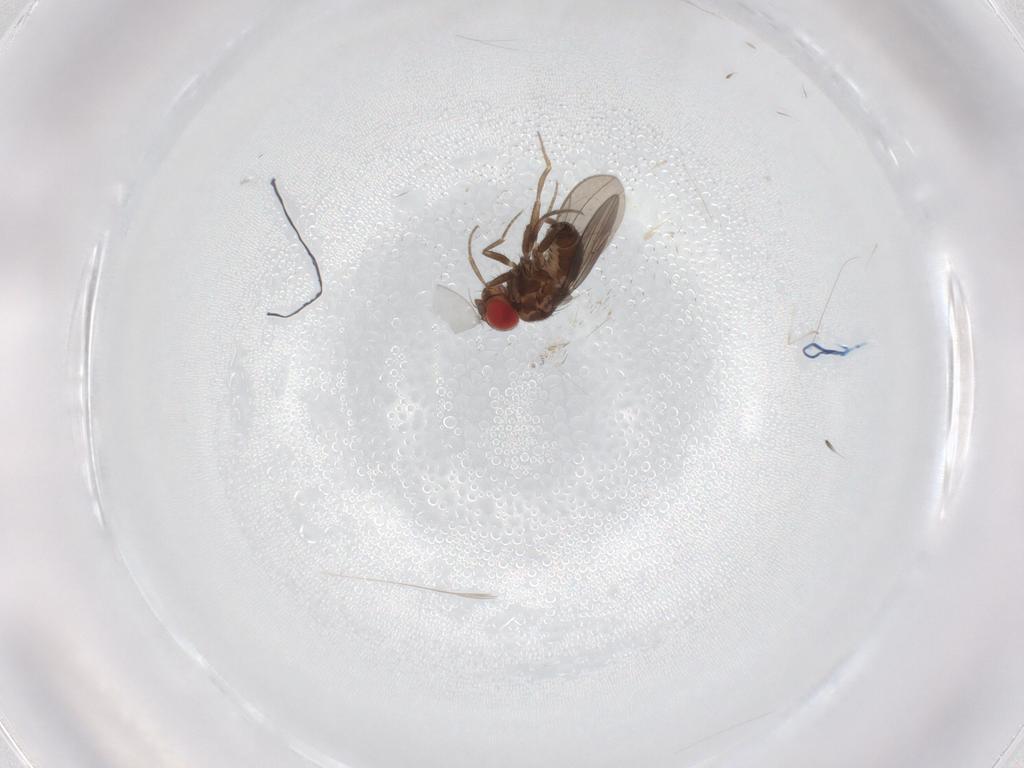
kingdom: Animalia
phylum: Arthropoda
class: Insecta
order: Diptera
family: Drosophilidae
